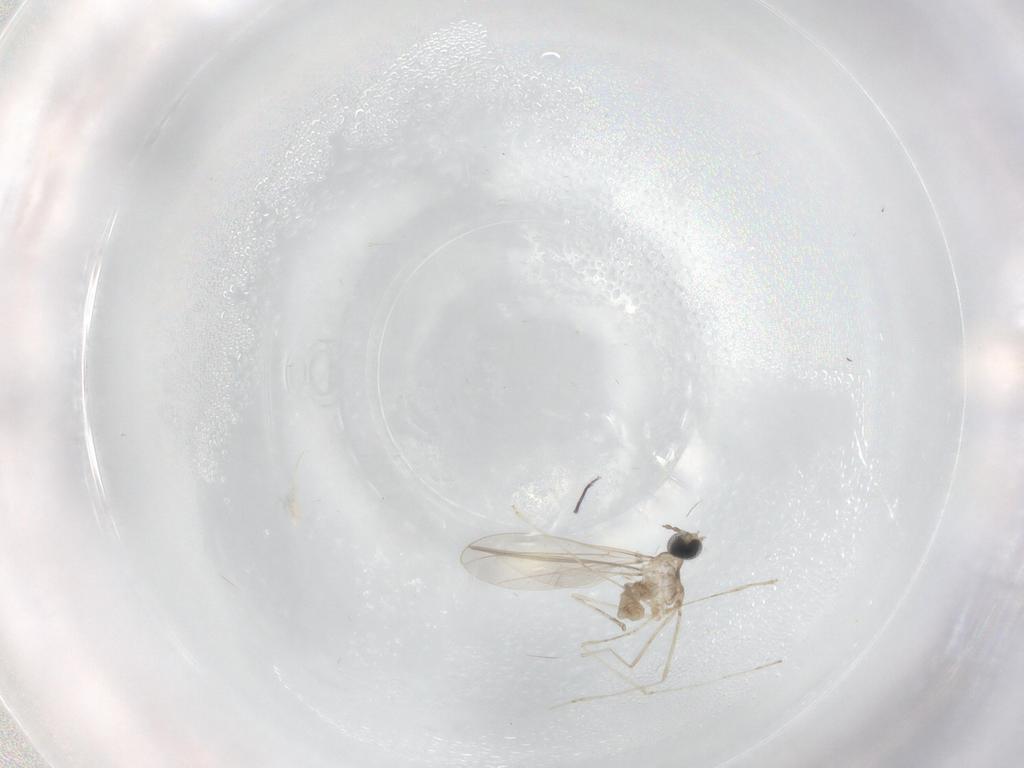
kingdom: Animalia
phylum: Arthropoda
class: Insecta
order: Diptera
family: Cecidomyiidae
